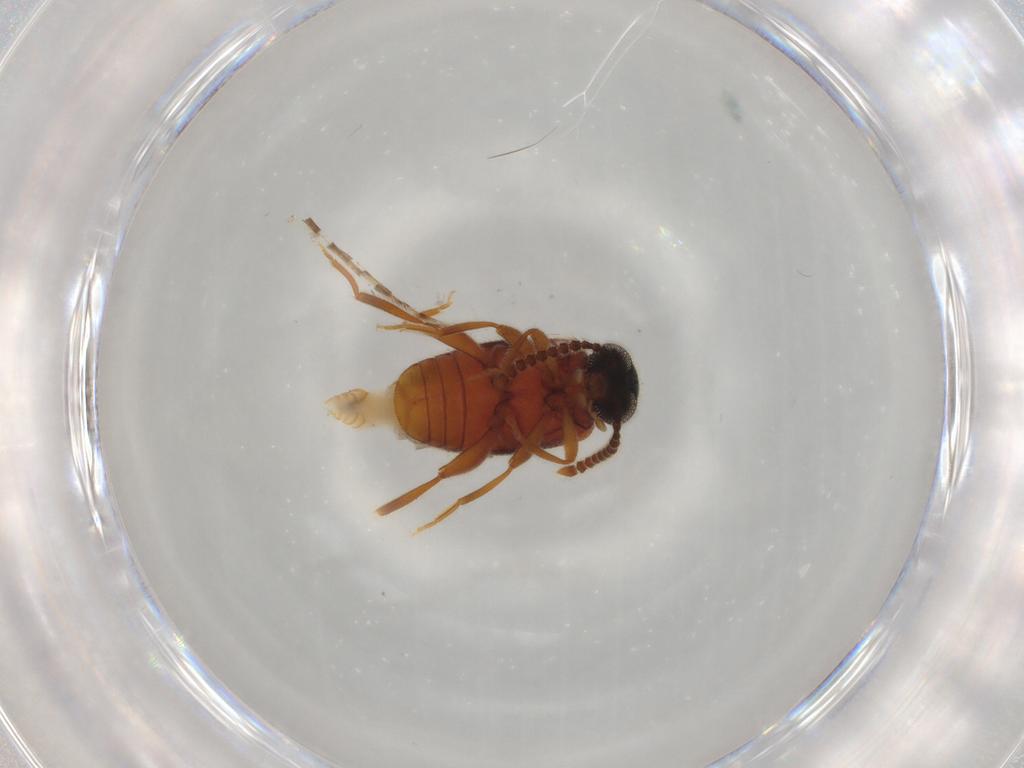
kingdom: Animalia
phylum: Arthropoda
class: Insecta
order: Coleoptera
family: Aderidae
